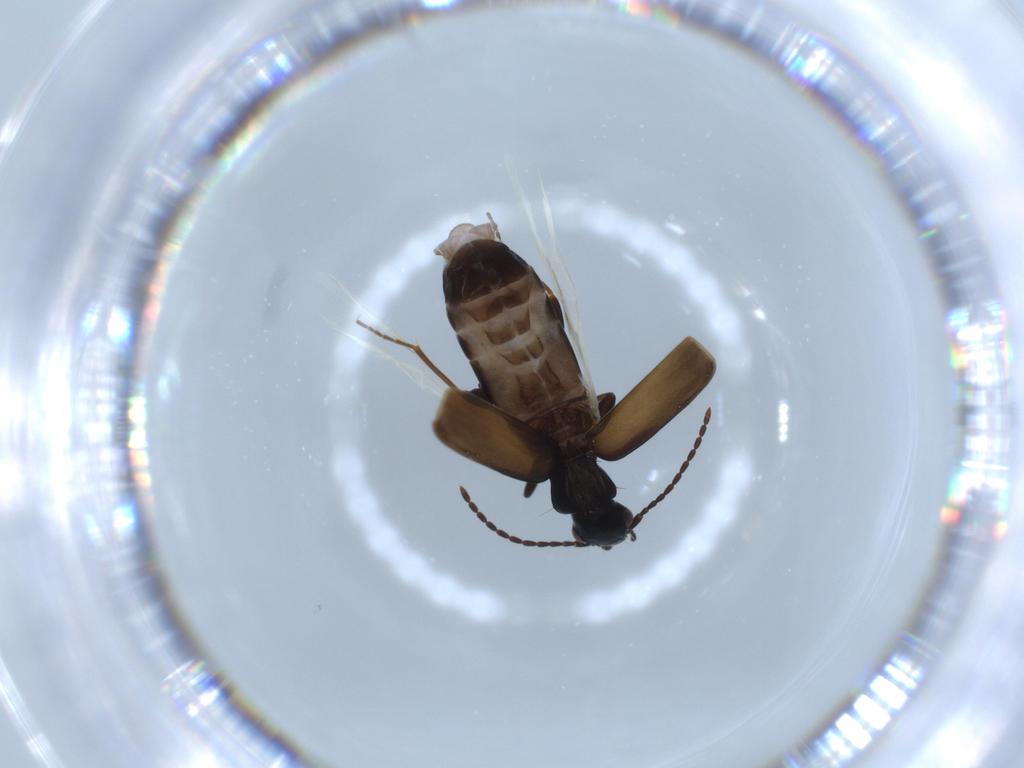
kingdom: Animalia
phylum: Arthropoda
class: Insecta
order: Coleoptera
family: Carabidae
